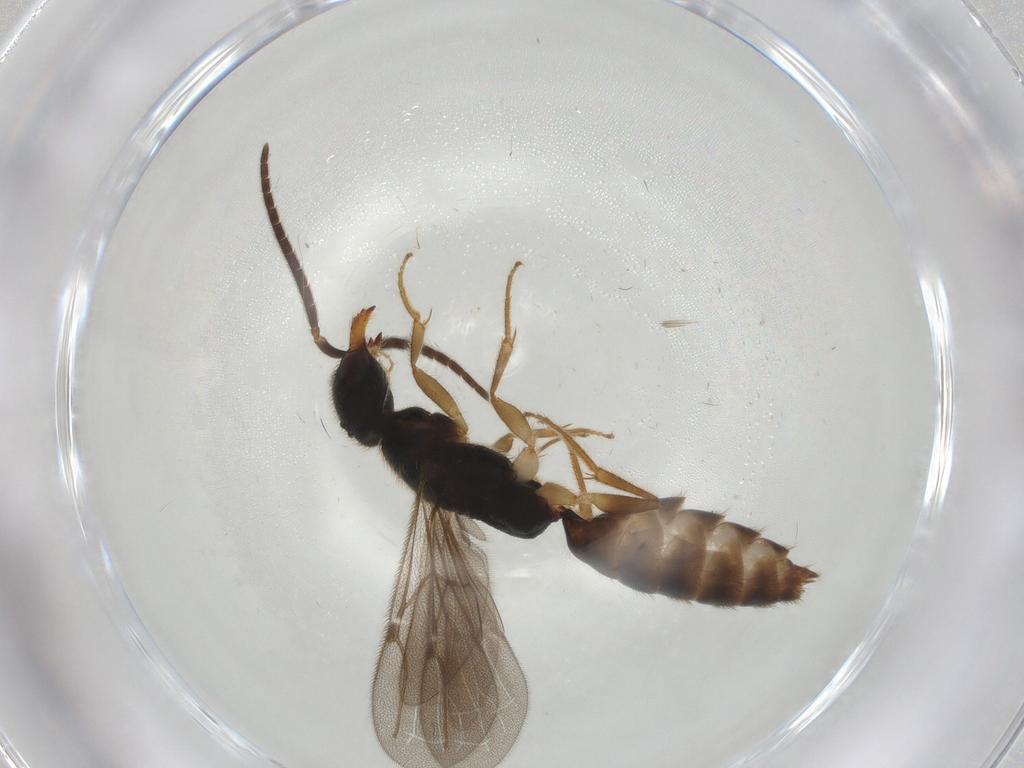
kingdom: Animalia
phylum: Arthropoda
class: Insecta
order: Hymenoptera
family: Bethylidae
